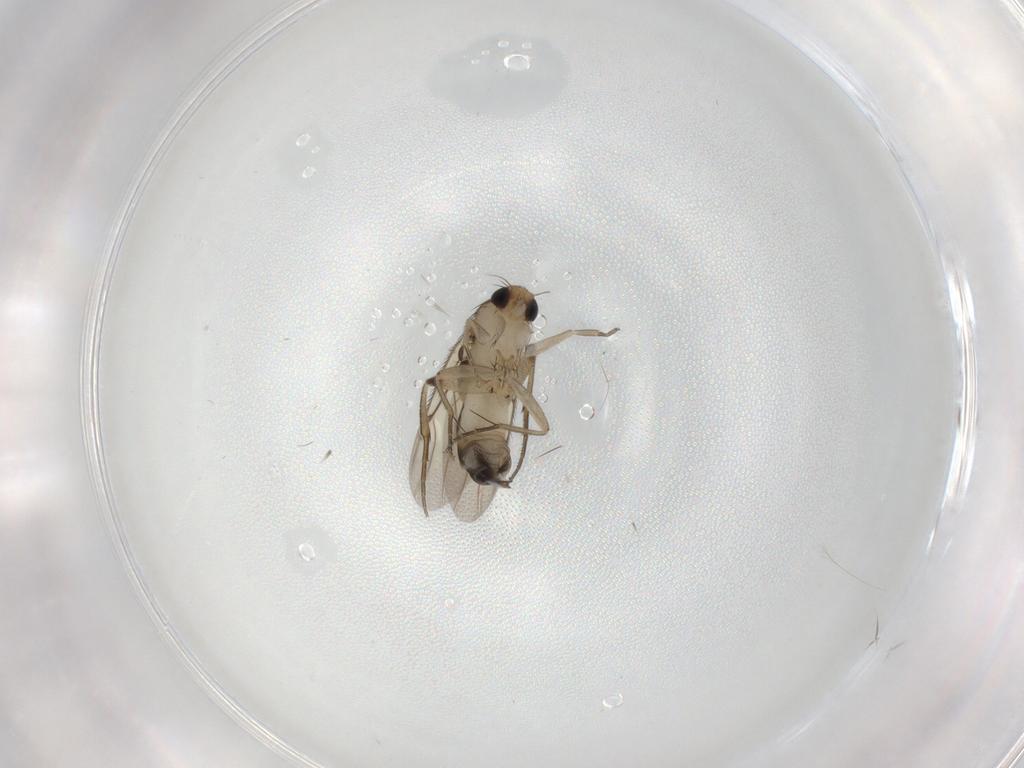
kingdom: Animalia
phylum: Arthropoda
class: Insecta
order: Diptera
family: Phoridae
